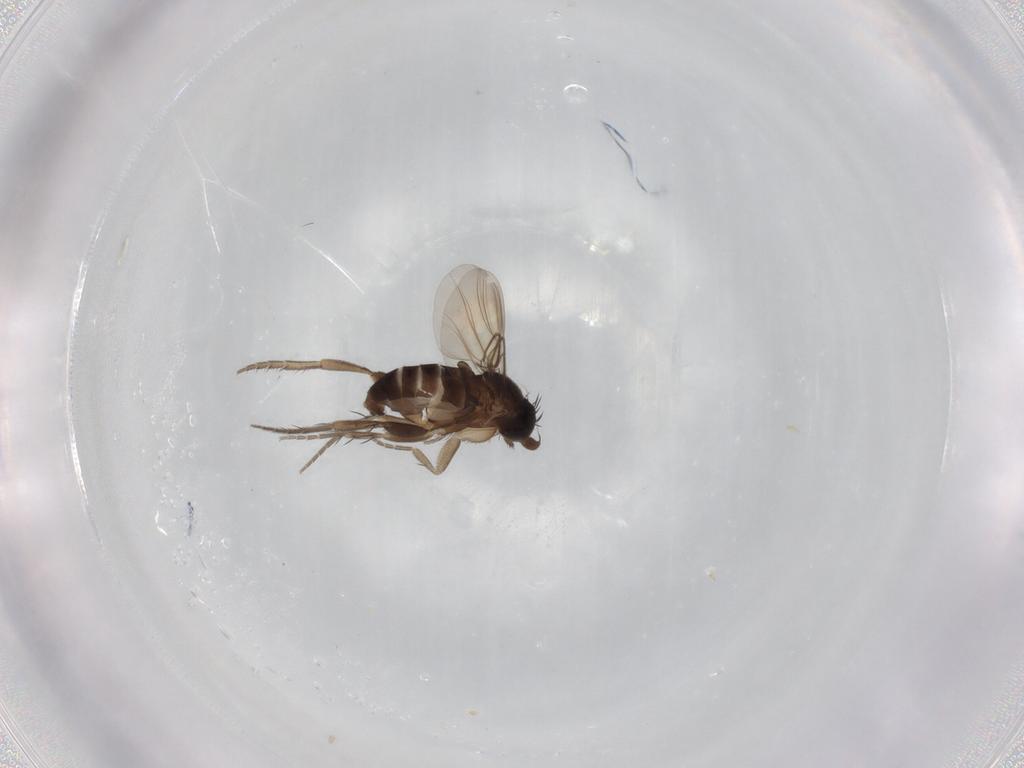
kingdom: Animalia
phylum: Arthropoda
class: Insecta
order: Diptera
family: Phoridae
